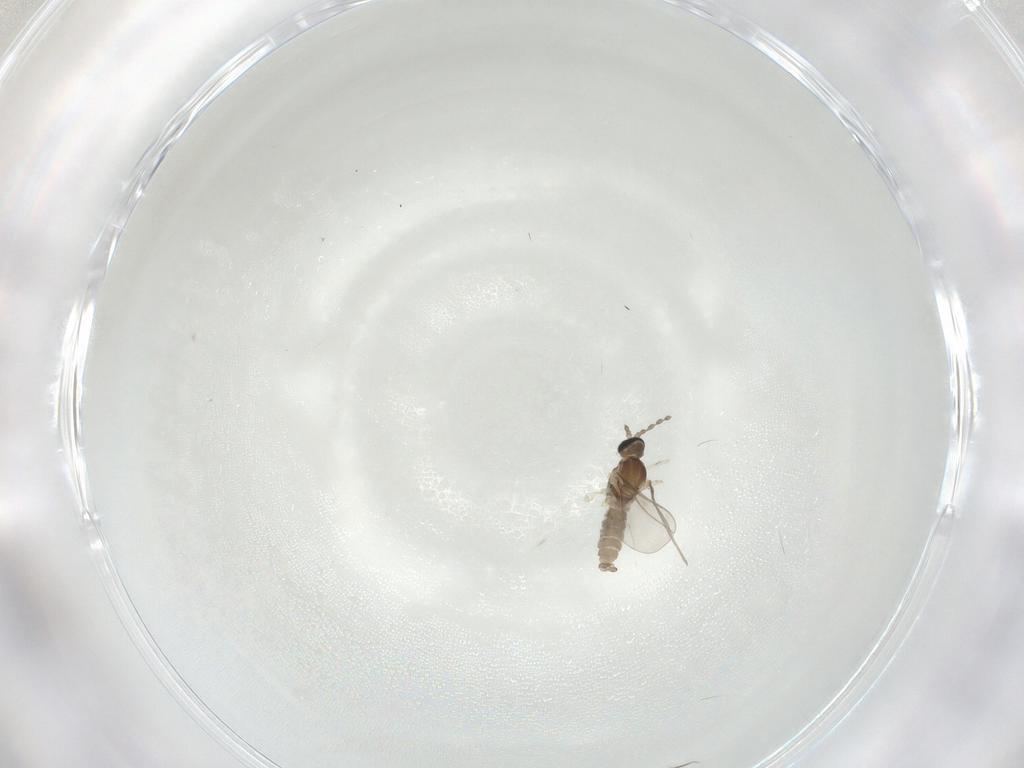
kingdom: Animalia
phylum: Arthropoda
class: Insecta
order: Diptera
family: Cecidomyiidae
